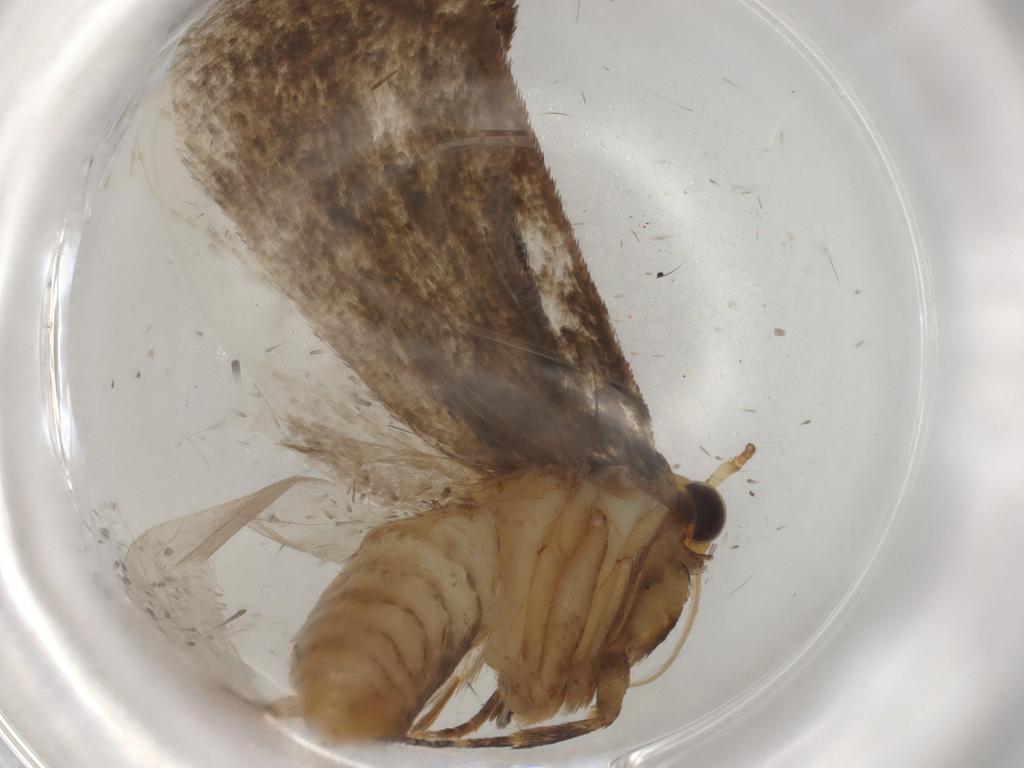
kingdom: Animalia
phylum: Arthropoda
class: Insecta
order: Lepidoptera
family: Oecophoridae
